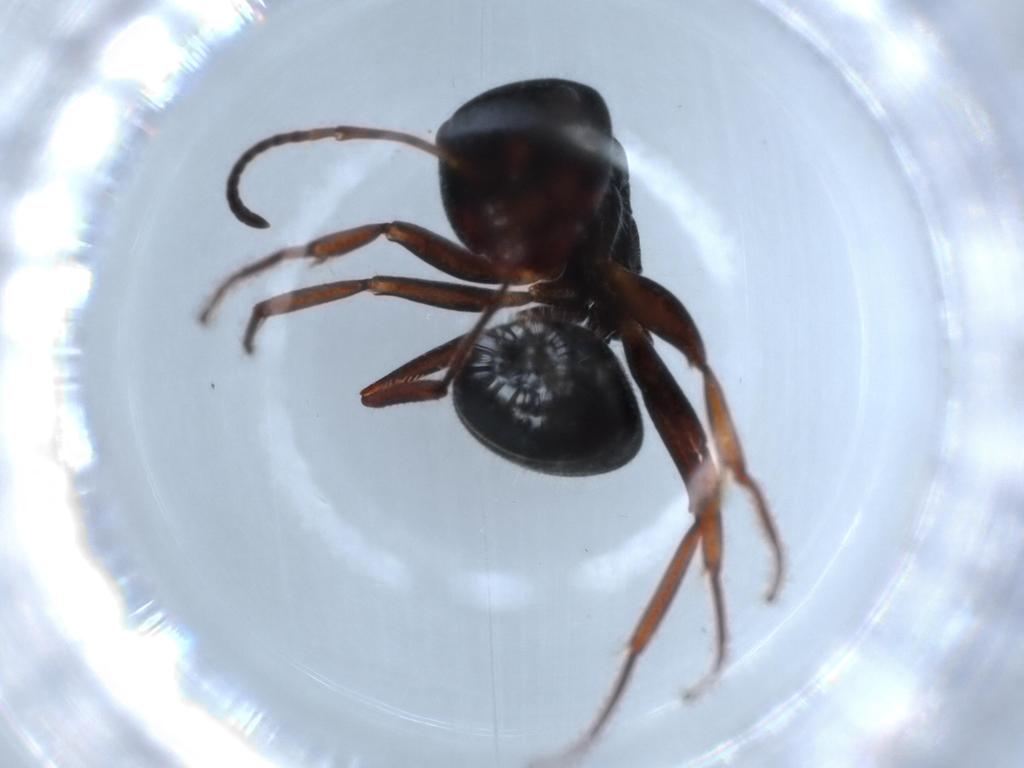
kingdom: Animalia
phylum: Arthropoda
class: Insecta
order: Hymenoptera
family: Formicidae
